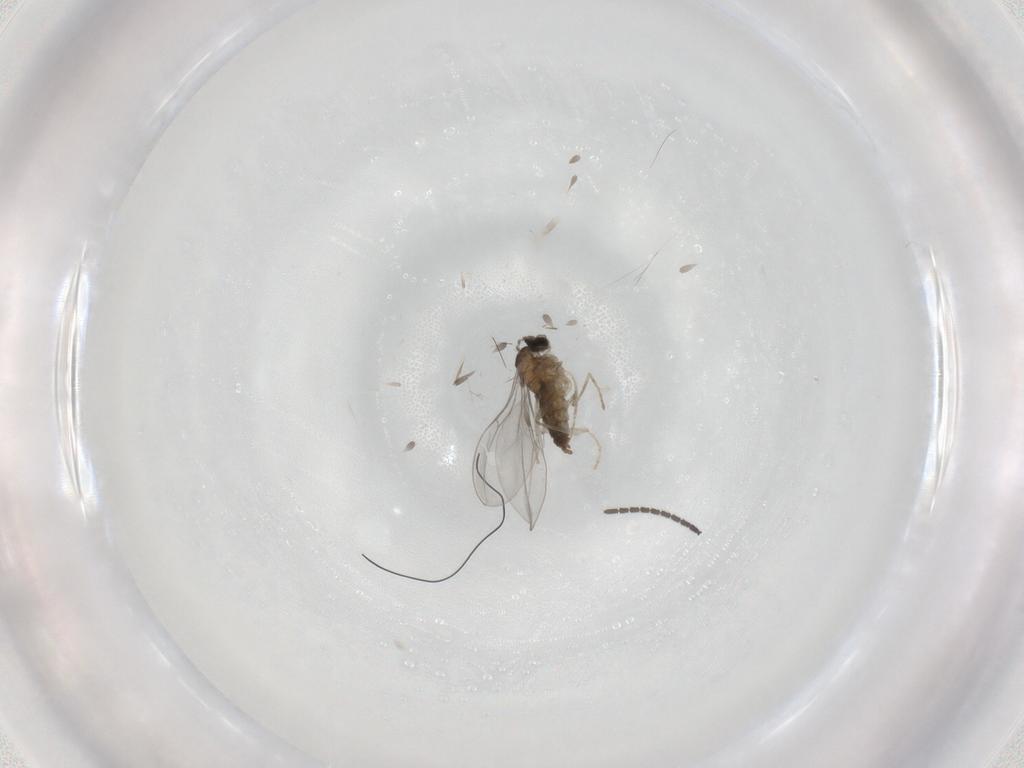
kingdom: Animalia
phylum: Arthropoda
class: Insecta
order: Diptera
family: Cecidomyiidae
